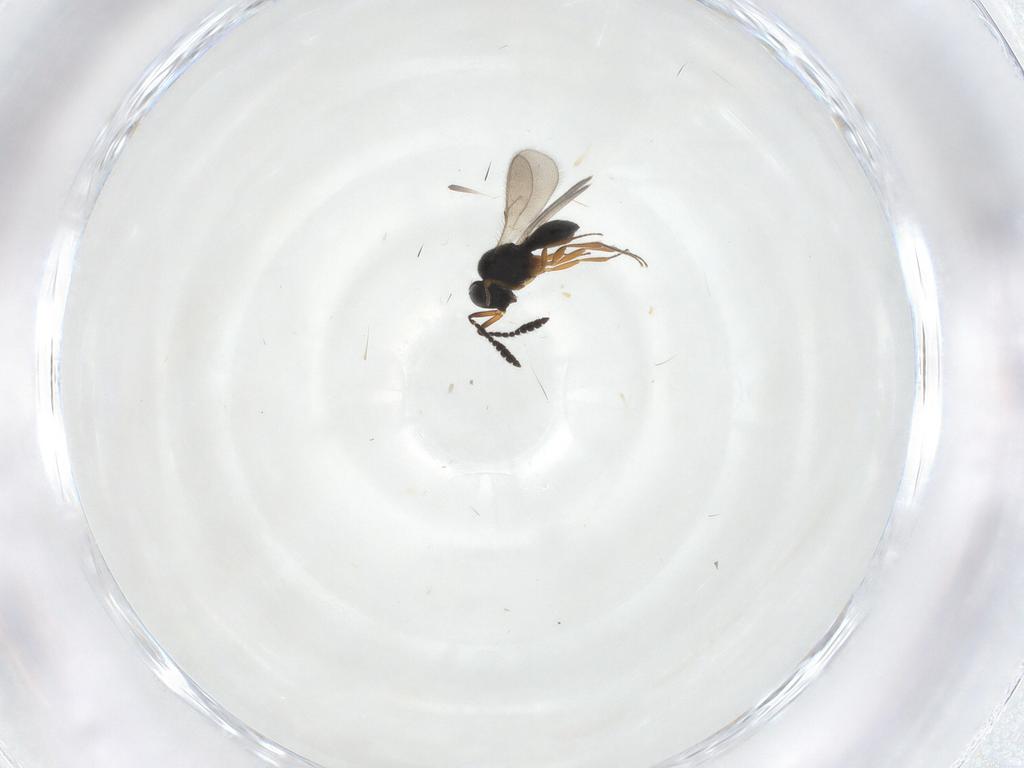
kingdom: Animalia
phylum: Arthropoda
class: Insecta
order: Hymenoptera
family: Scelionidae
